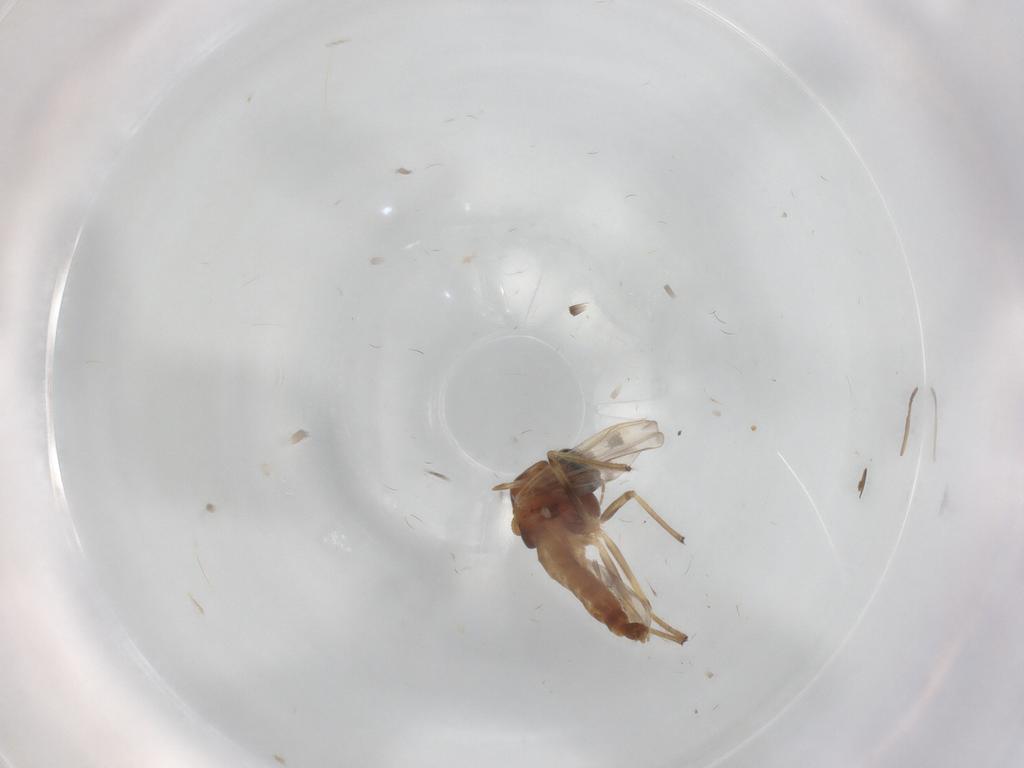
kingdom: Animalia
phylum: Arthropoda
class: Insecta
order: Diptera
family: Chironomidae
